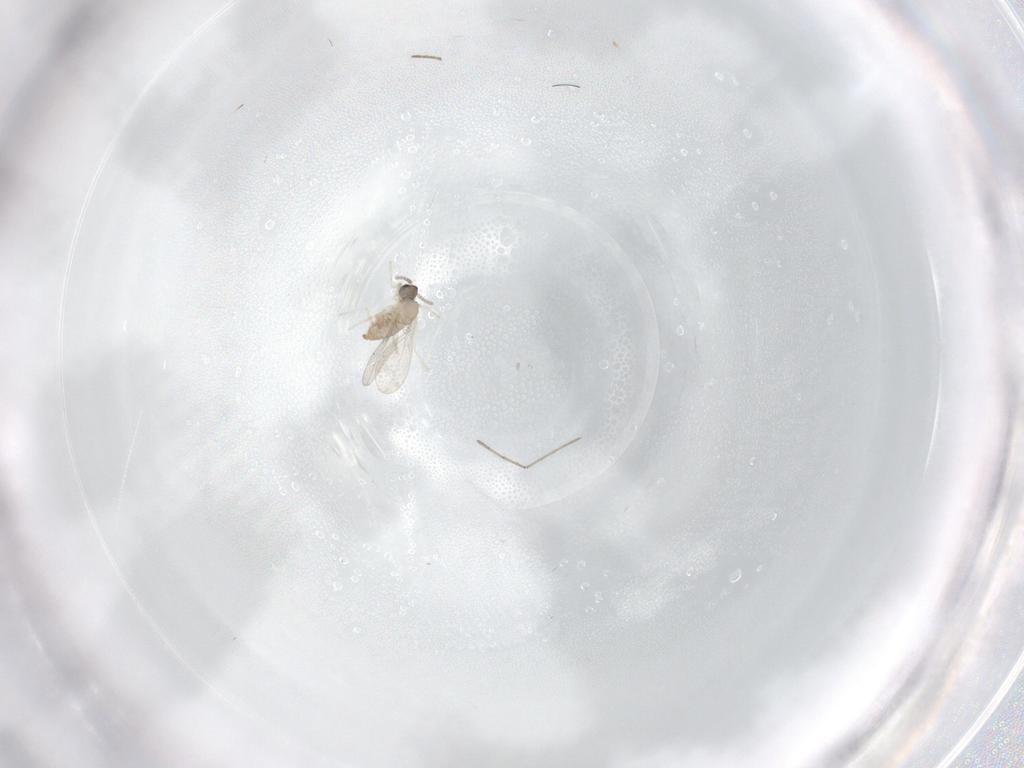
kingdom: Animalia
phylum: Arthropoda
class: Insecta
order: Diptera
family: Cecidomyiidae
